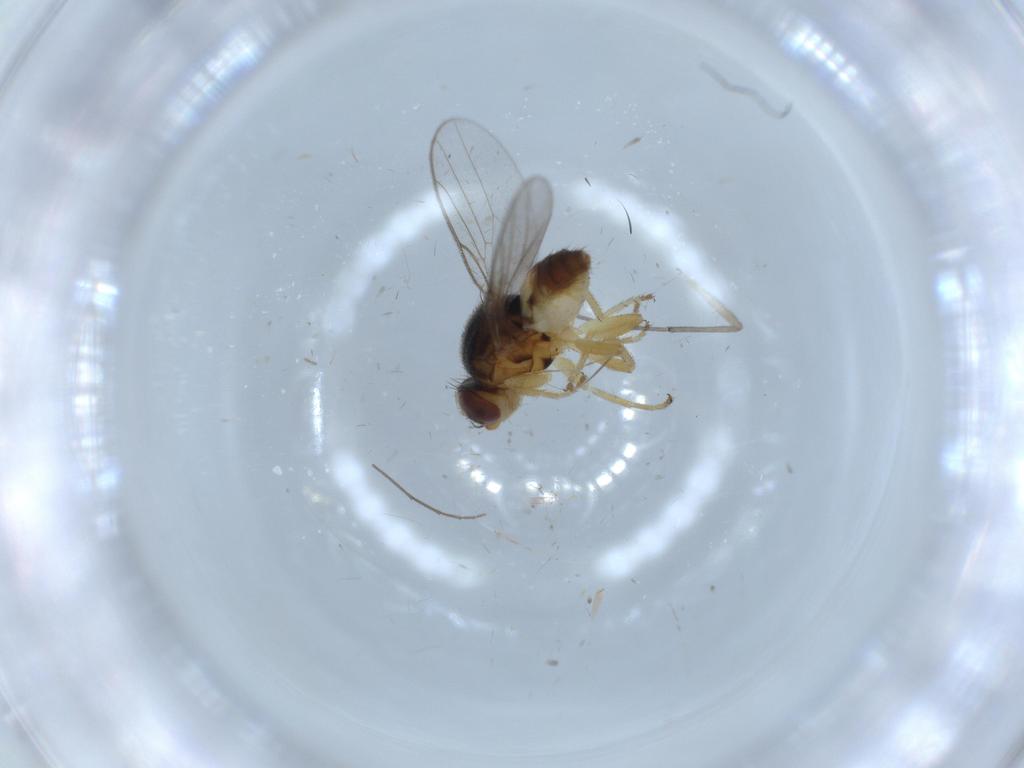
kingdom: Animalia
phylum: Arthropoda
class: Insecta
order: Diptera
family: Chloropidae
